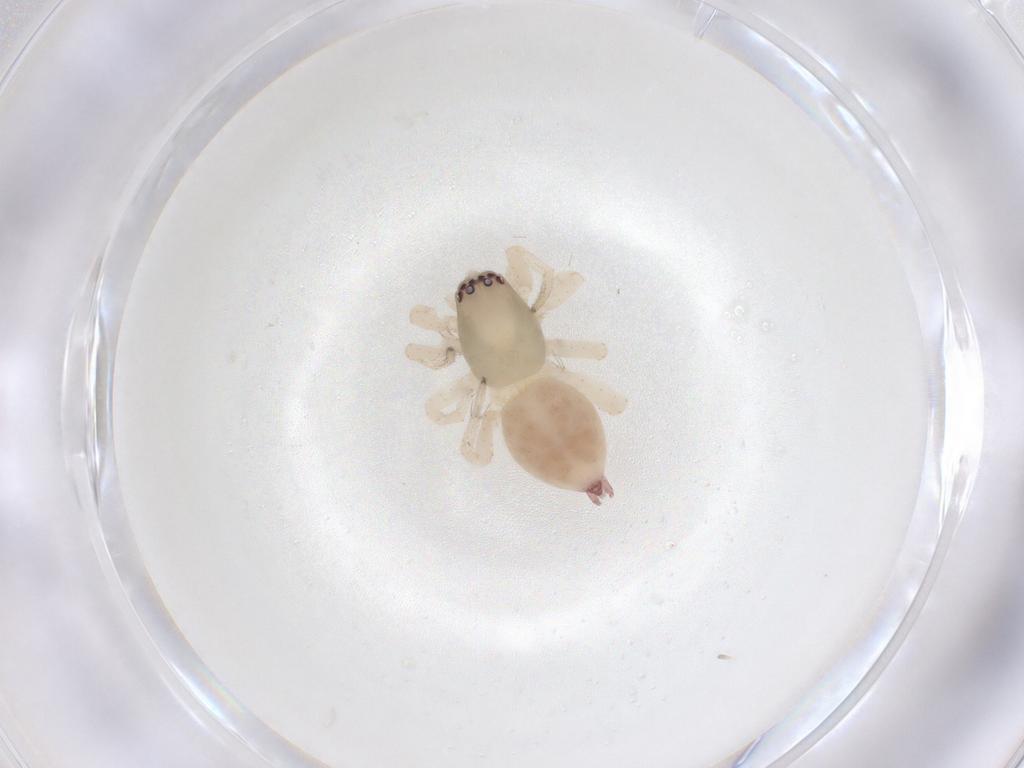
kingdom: Animalia
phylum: Arthropoda
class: Arachnida
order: Araneae
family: Clubionidae
